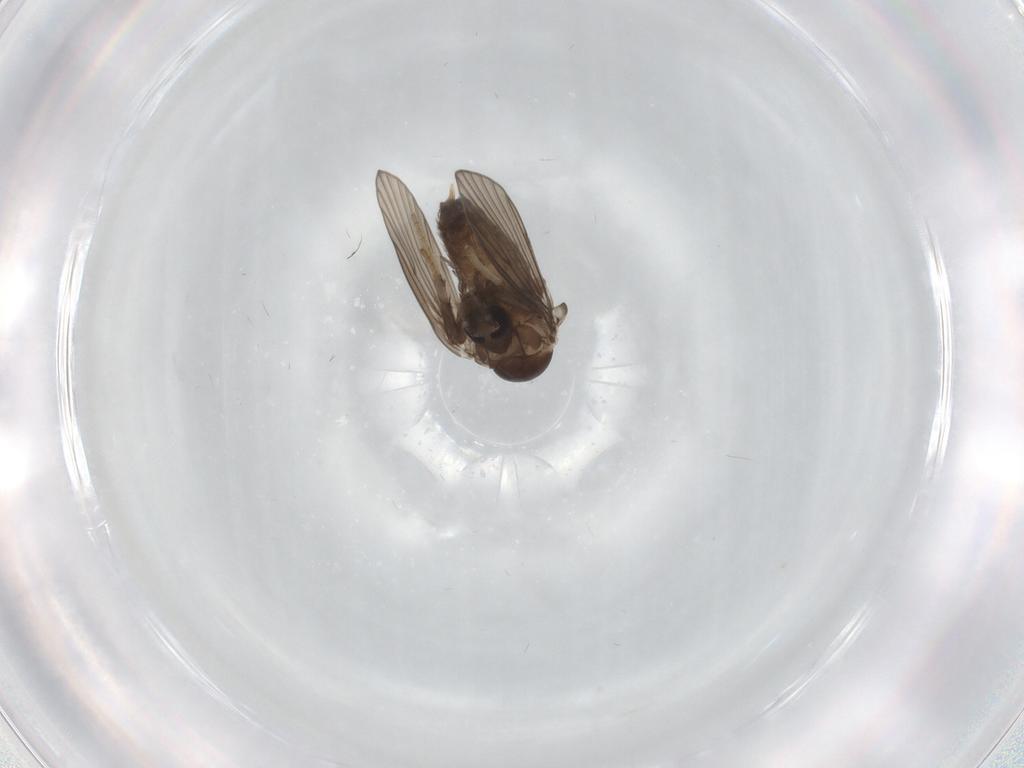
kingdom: Animalia
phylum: Arthropoda
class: Insecta
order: Diptera
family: Psychodidae
